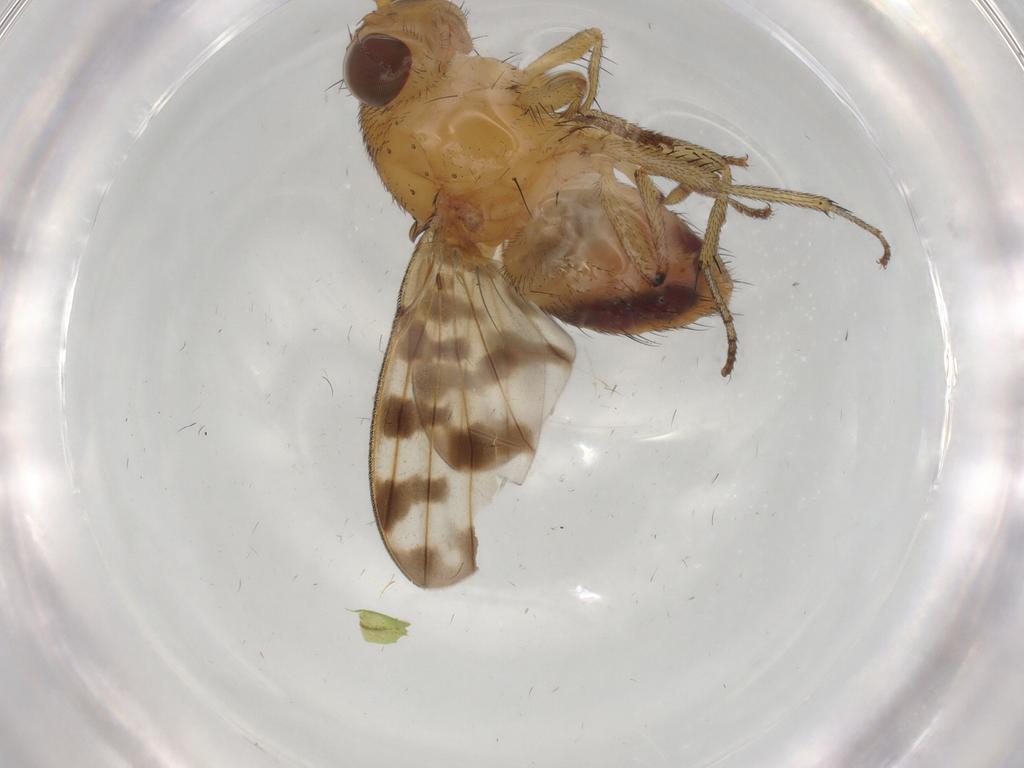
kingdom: Animalia
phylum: Arthropoda
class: Insecta
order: Diptera
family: Cecidomyiidae
